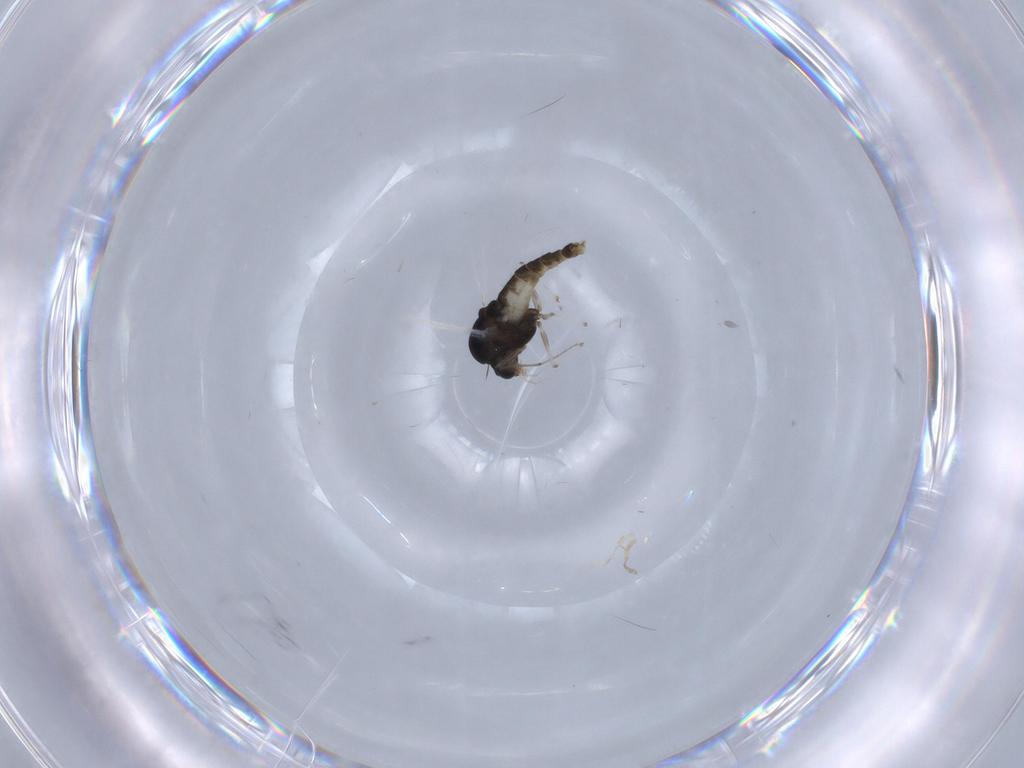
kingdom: Animalia
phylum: Arthropoda
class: Insecta
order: Diptera
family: Chironomidae
